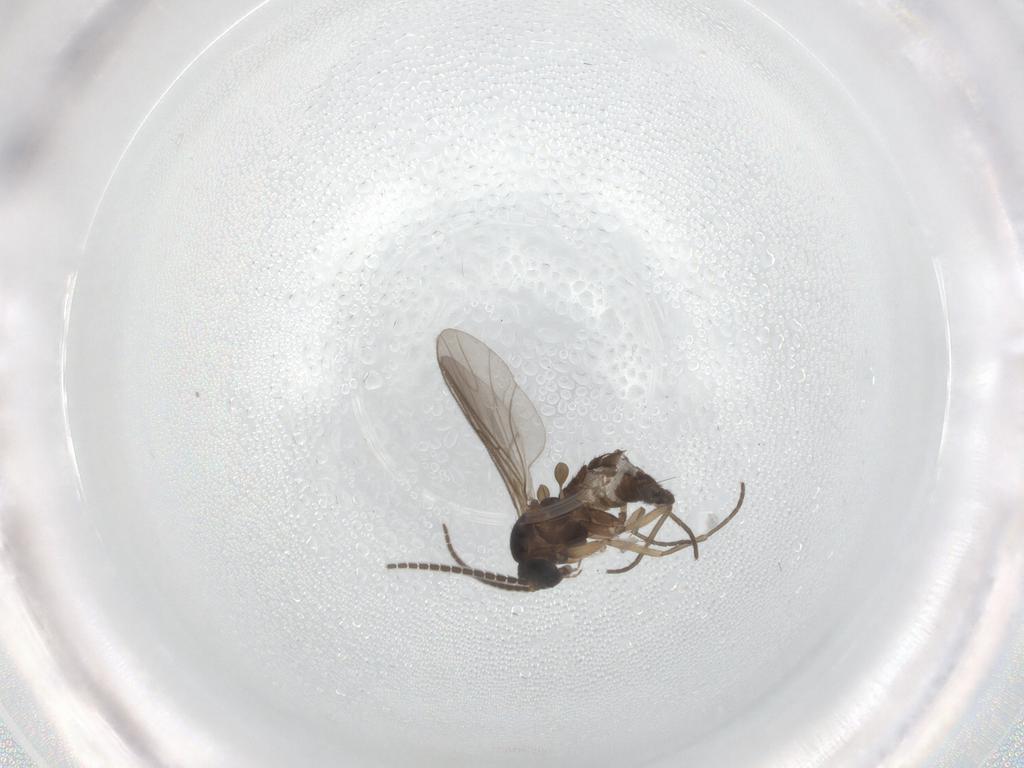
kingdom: Animalia
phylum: Arthropoda
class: Insecta
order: Diptera
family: Sciaridae
